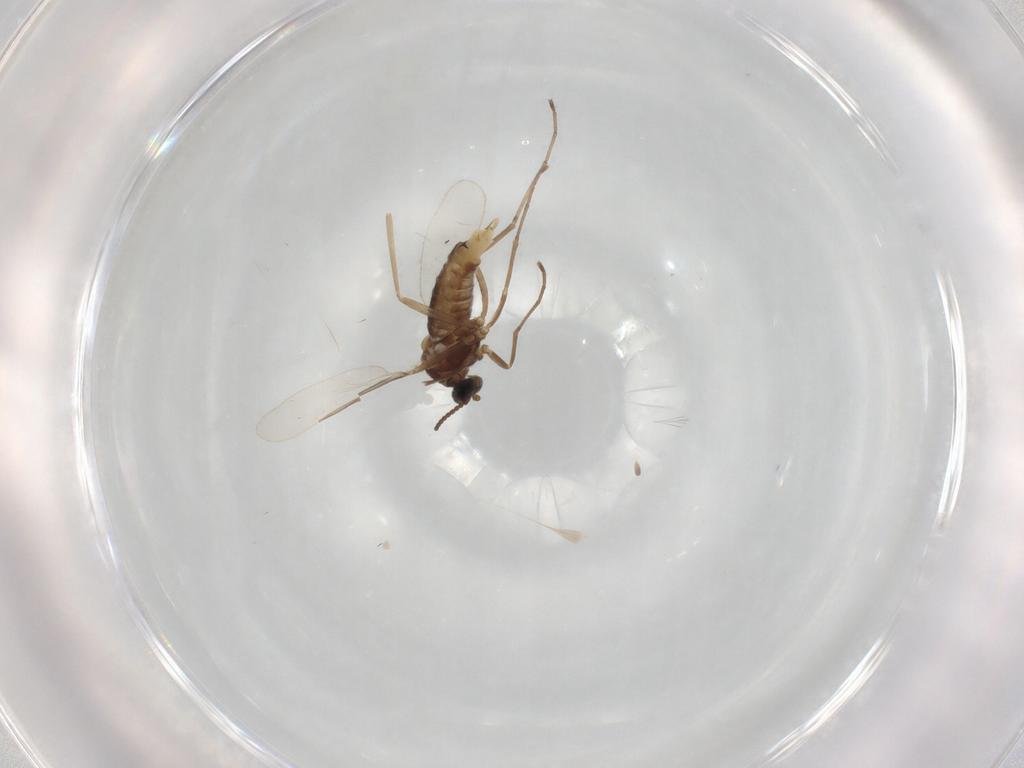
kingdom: Animalia
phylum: Arthropoda
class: Insecta
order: Diptera
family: Cecidomyiidae
